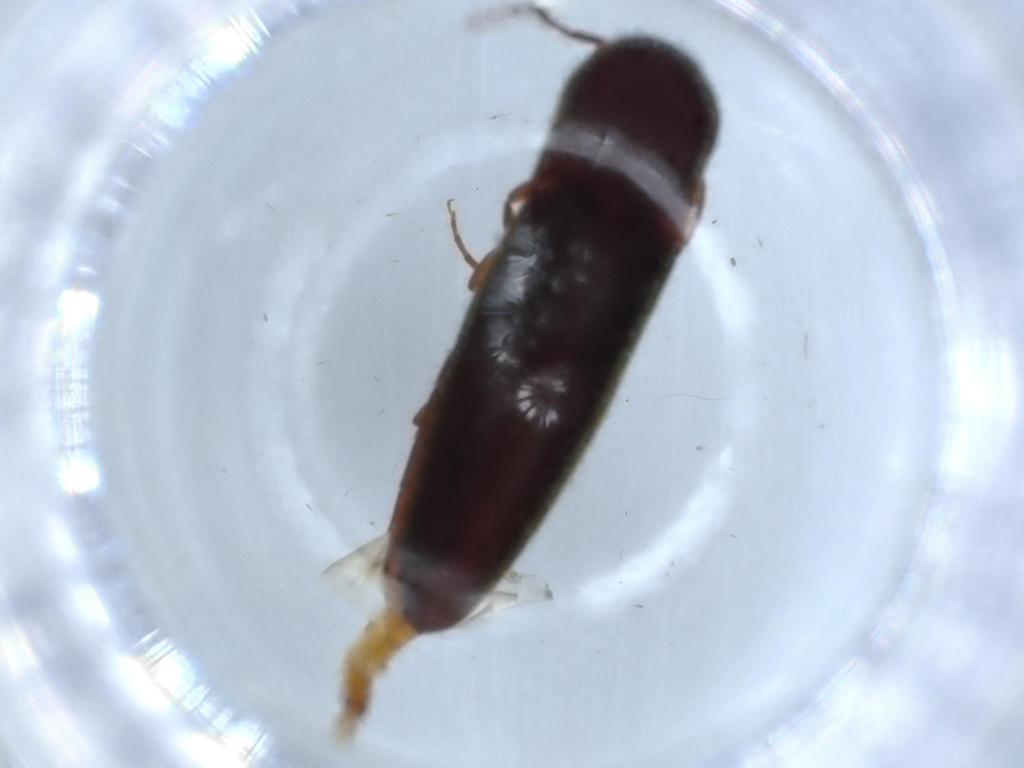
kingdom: Animalia
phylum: Arthropoda
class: Insecta
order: Coleoptera
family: Eucnemidae
